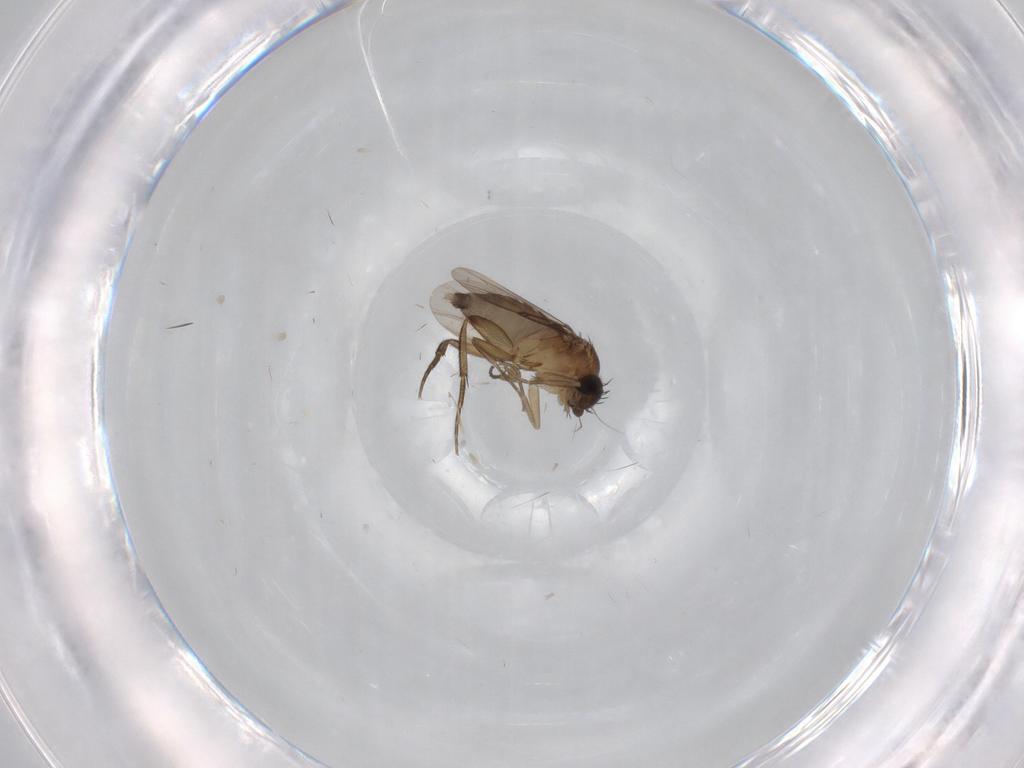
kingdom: Animalia
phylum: Arthropoda
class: Insecta
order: Diptera
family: Phoridae
